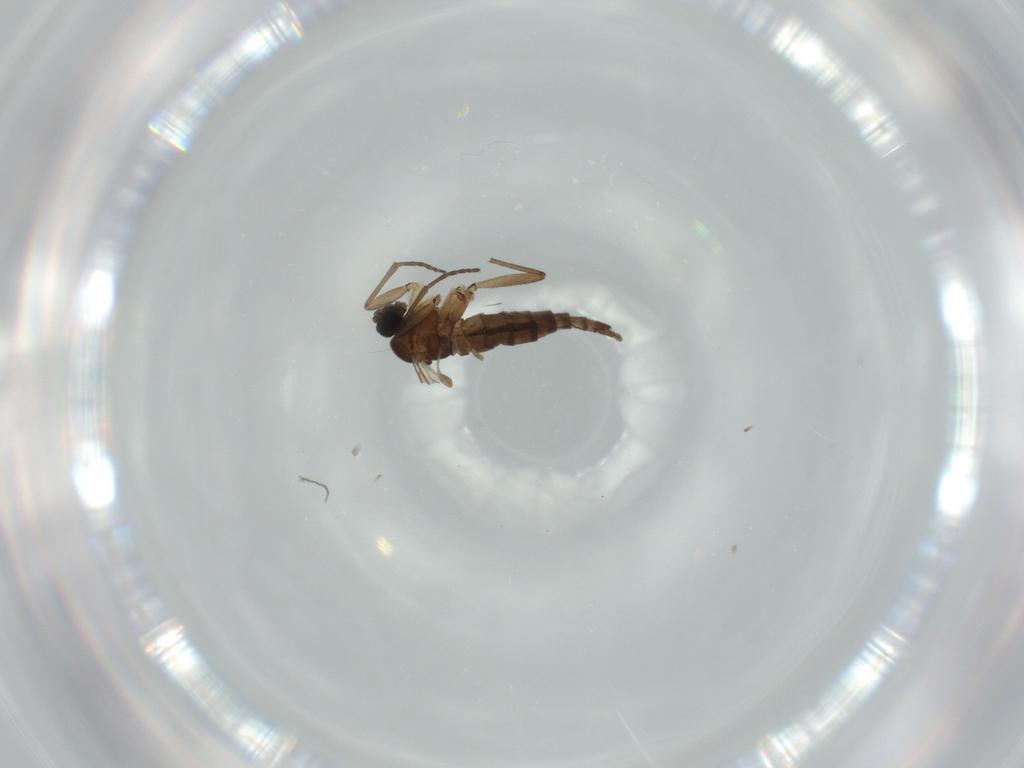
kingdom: Animalia
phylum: Arthropoda
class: Insecta
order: Diptera
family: Sciaridae
